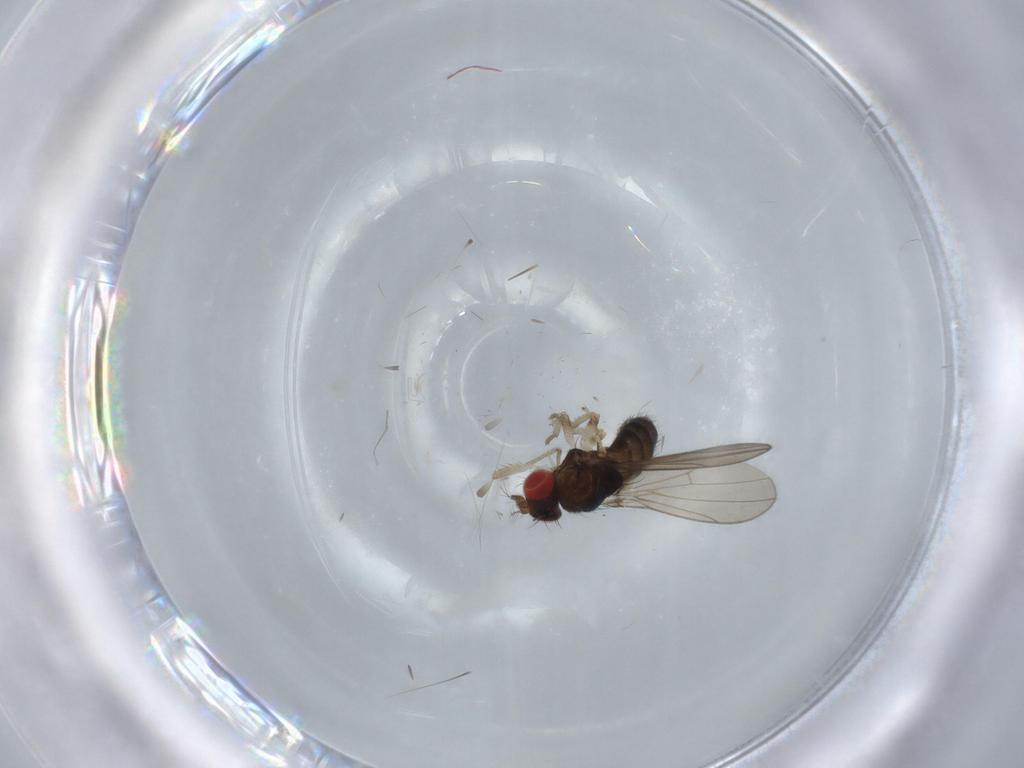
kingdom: Animalia
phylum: Arthropoda
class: Insecta
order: Diptera
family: Drosophilidae
